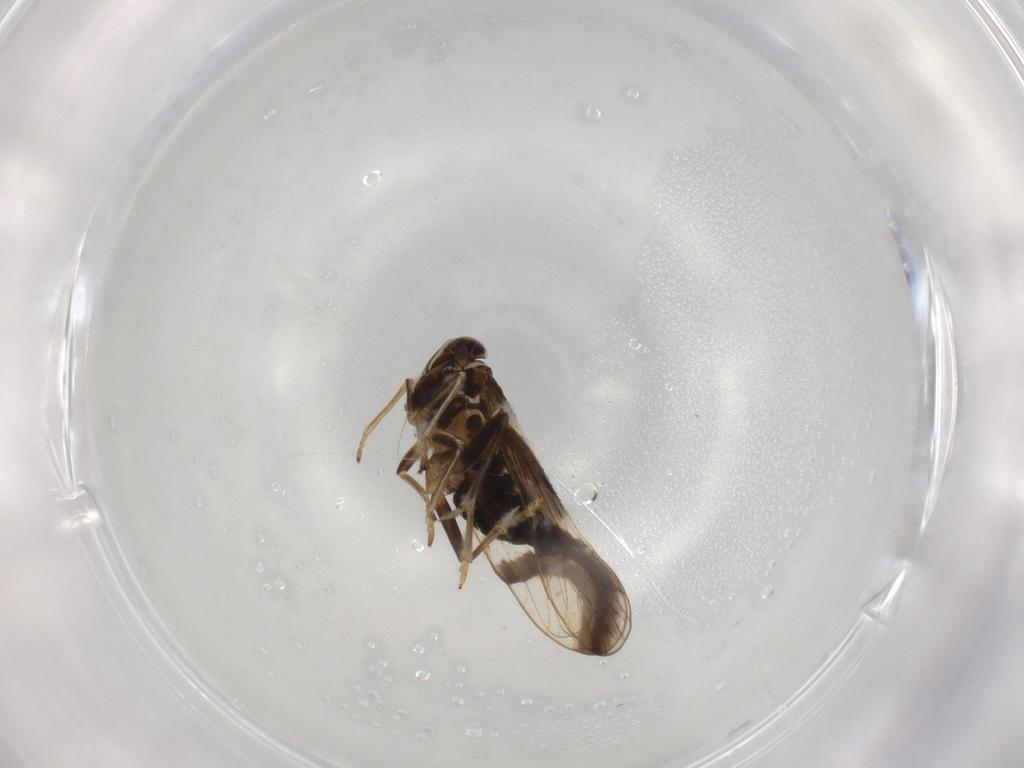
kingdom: Animalia
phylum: Arthropoda
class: Insecta
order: Hemiptera
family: Delphacidae
